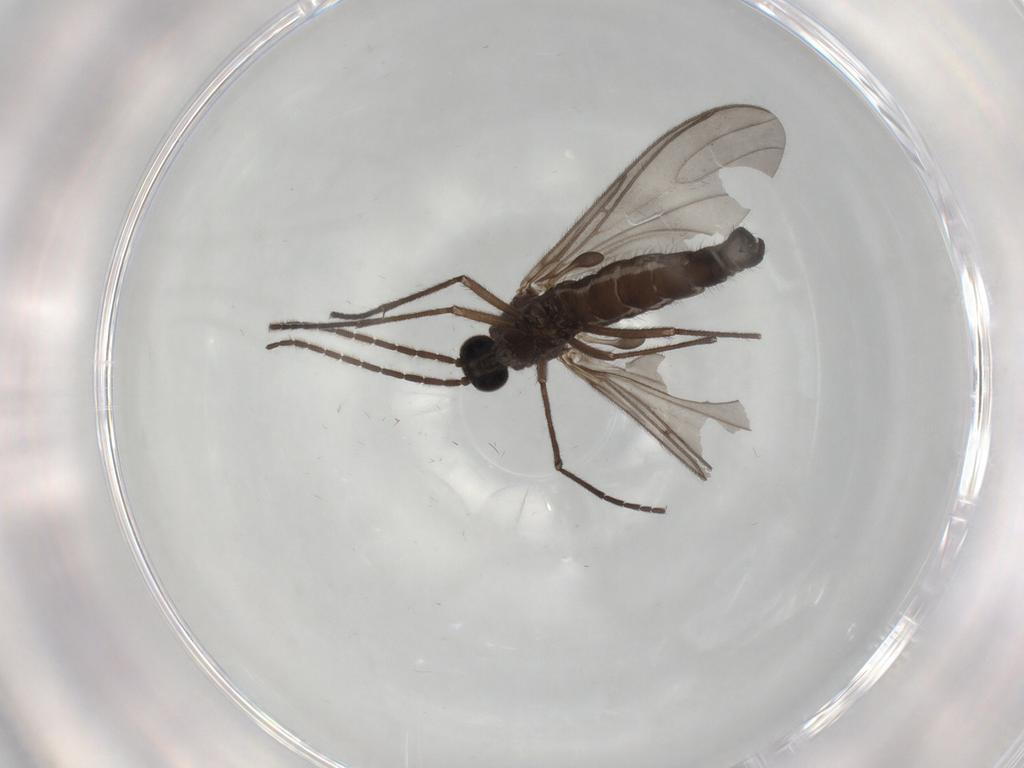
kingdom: Animalia
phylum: Arthropoda
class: Insecta
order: Diptera
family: Sciaridae
